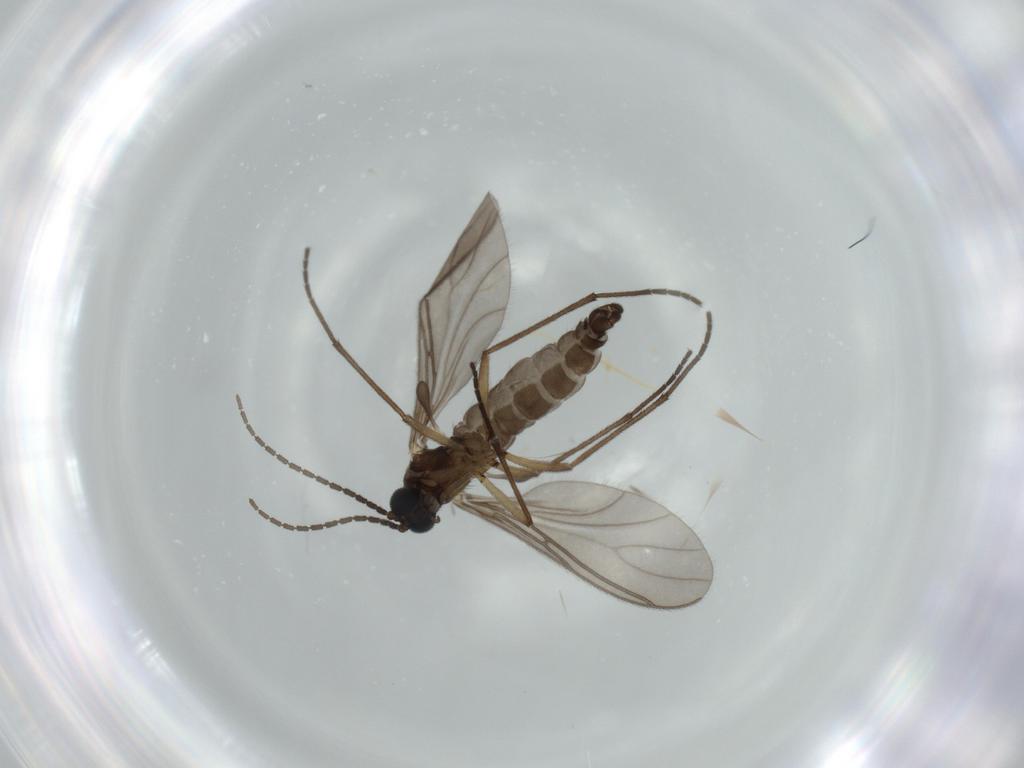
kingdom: Animalia
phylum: Arthropoda
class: Insecta
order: Diptera
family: Sciaridae
